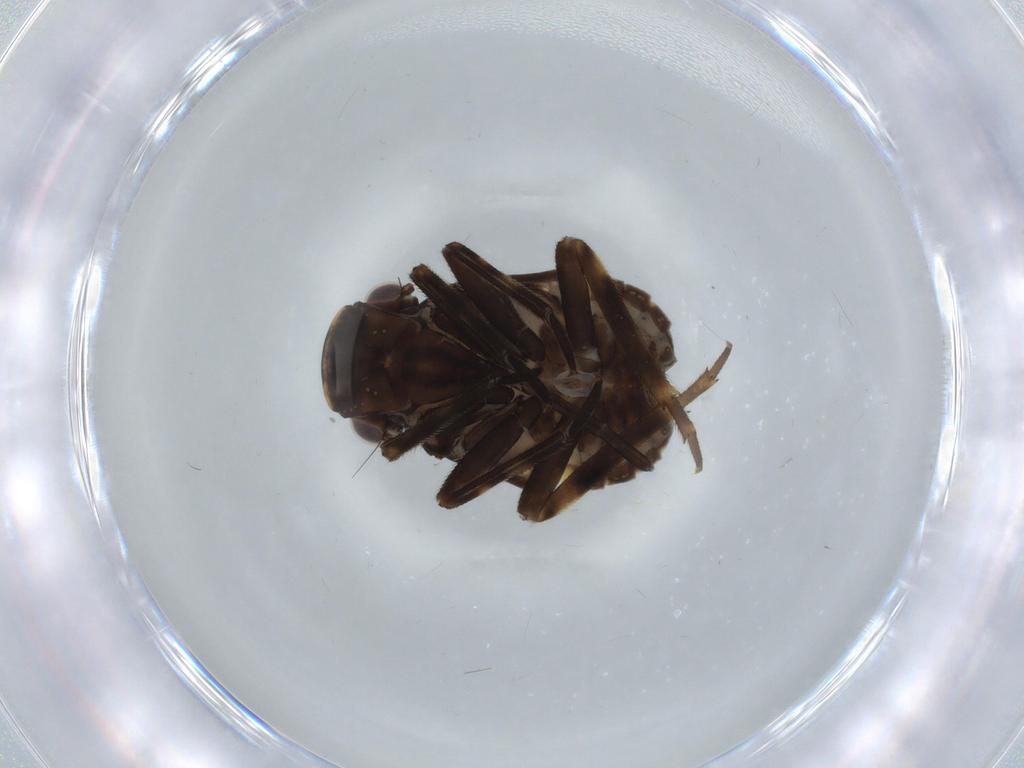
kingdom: Animalia
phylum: Arthropoda
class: Insecta
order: Hemiptera
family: Fulgoridae
